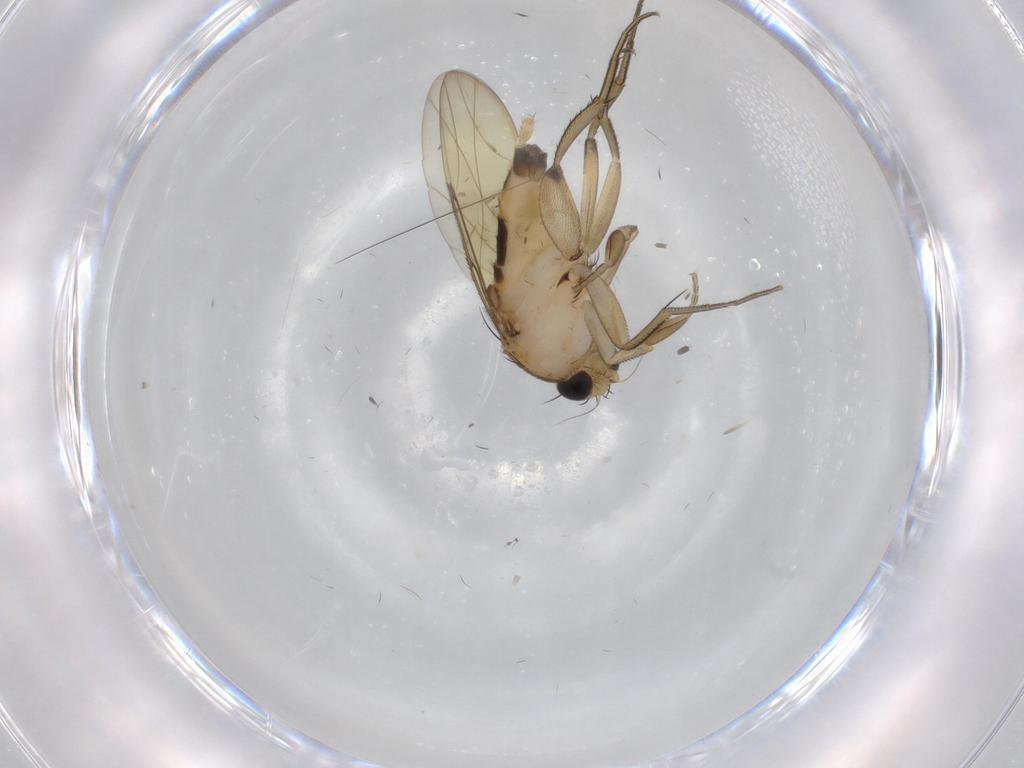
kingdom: Animalia
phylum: Arthropoda
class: Insecta
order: Diptera
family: Phoridae
